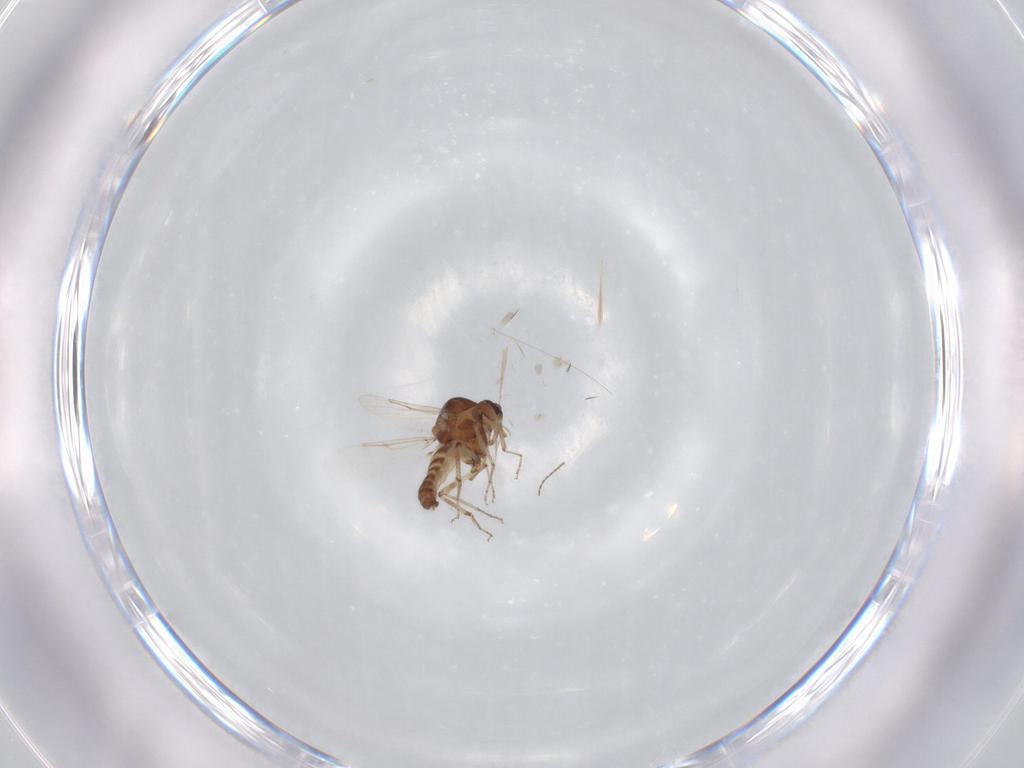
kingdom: Animalia
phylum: Arthropoda
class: Insecta
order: Diptera
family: Ceratopogonidae
